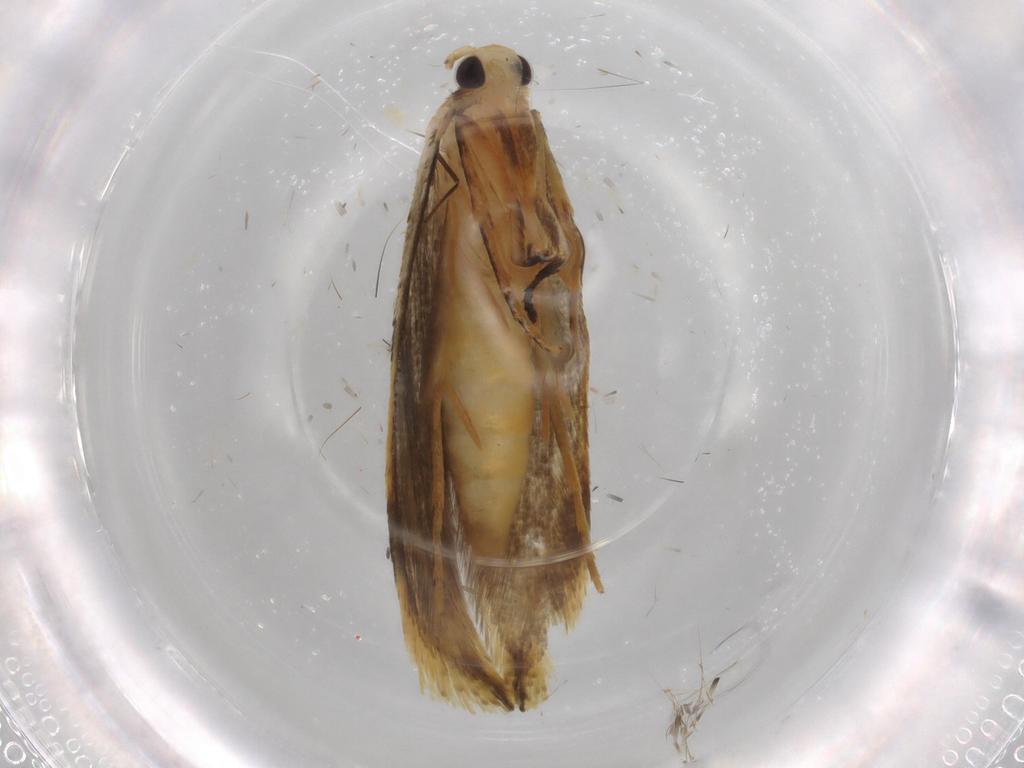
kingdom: Animalia
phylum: Arthropoda
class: Insecta
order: Lepidoptera
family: Tineidae
